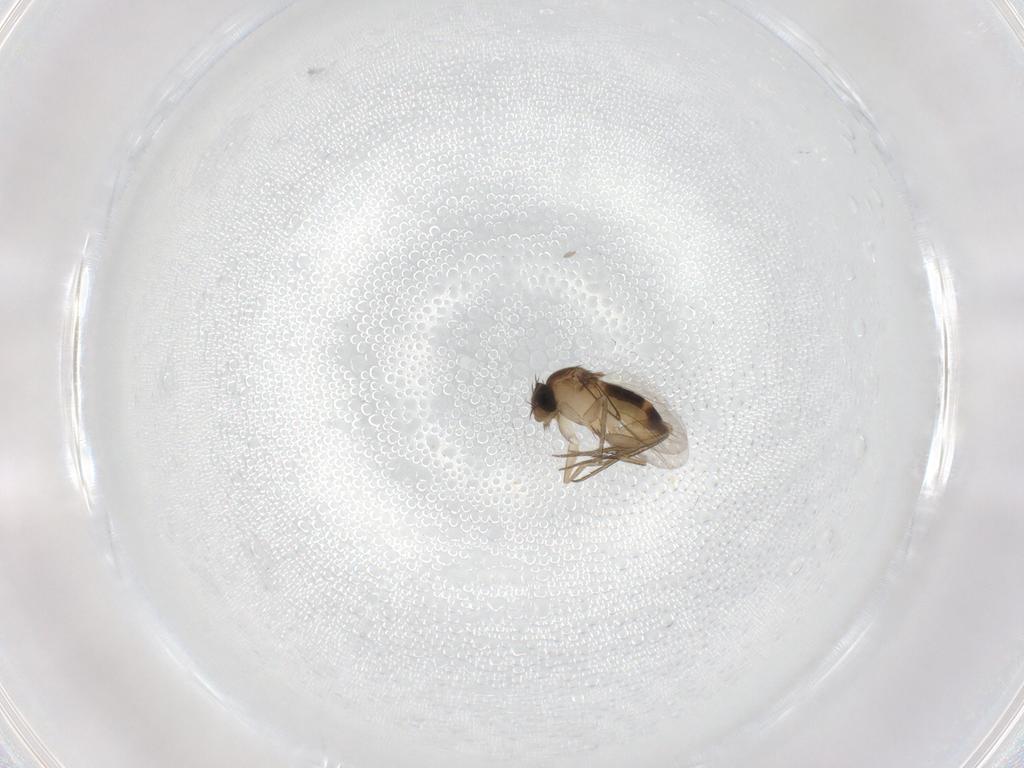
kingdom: Animalia
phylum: Arthropoda
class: Insecta
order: Diptera
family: Phoridae
